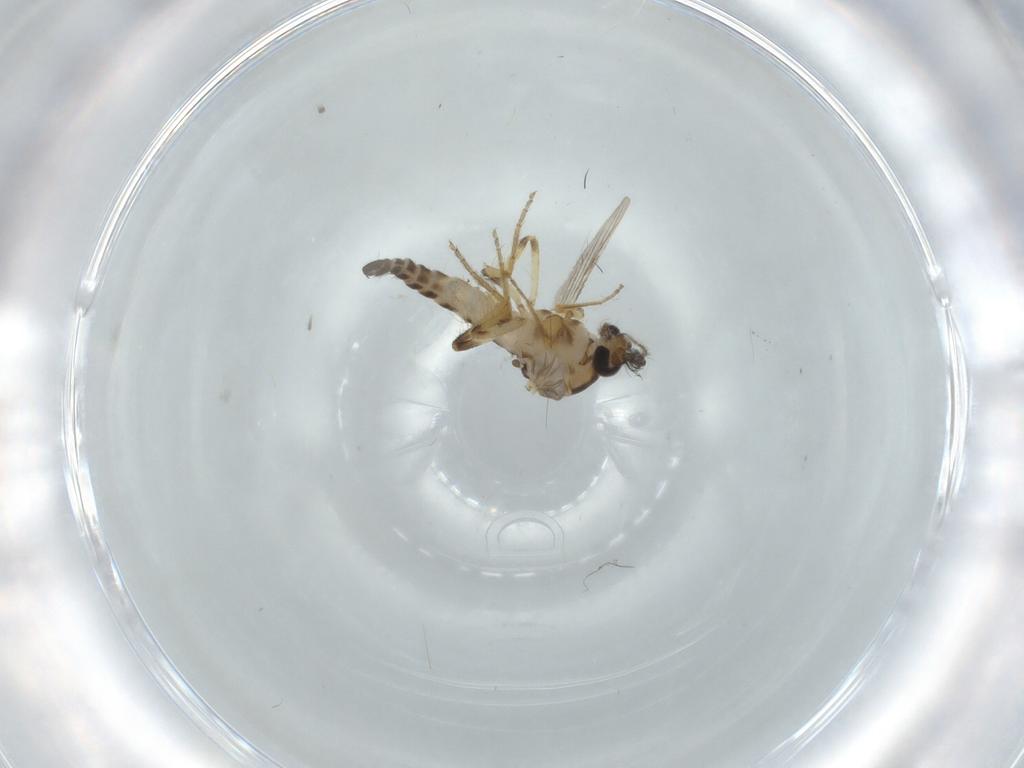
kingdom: Animalia
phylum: Arthropoda
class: Insecta
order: Diptera
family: Ceratopogonidae
